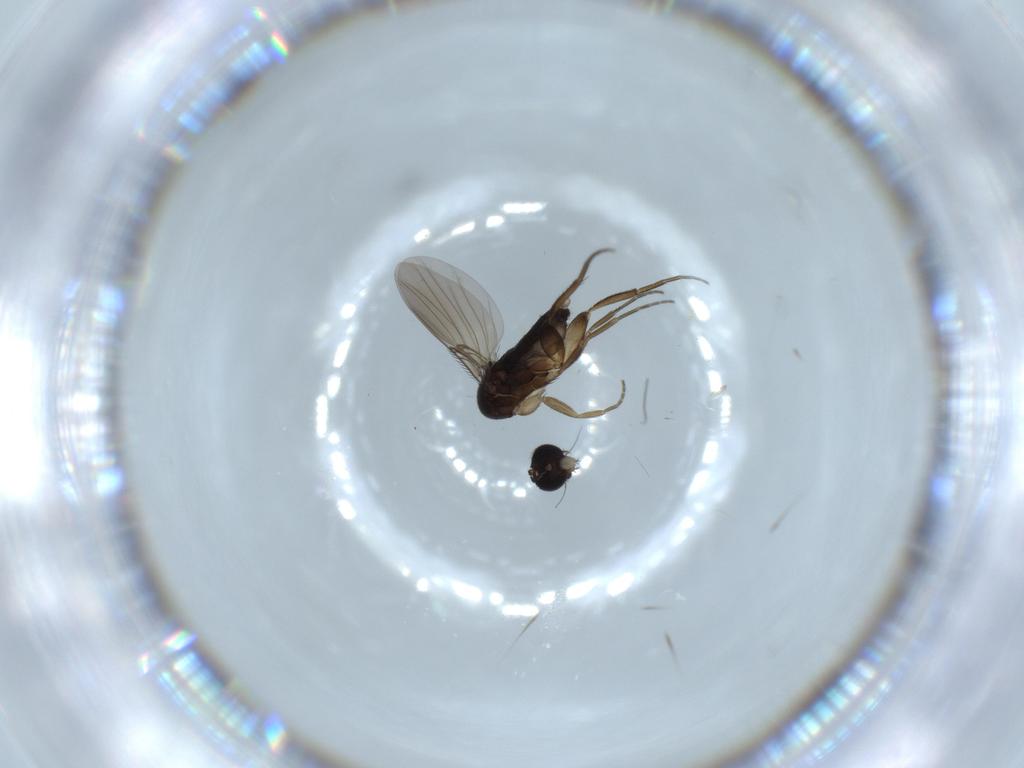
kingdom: Animalia
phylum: Arthropoda
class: Insecta
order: Diptera
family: Phoridae
